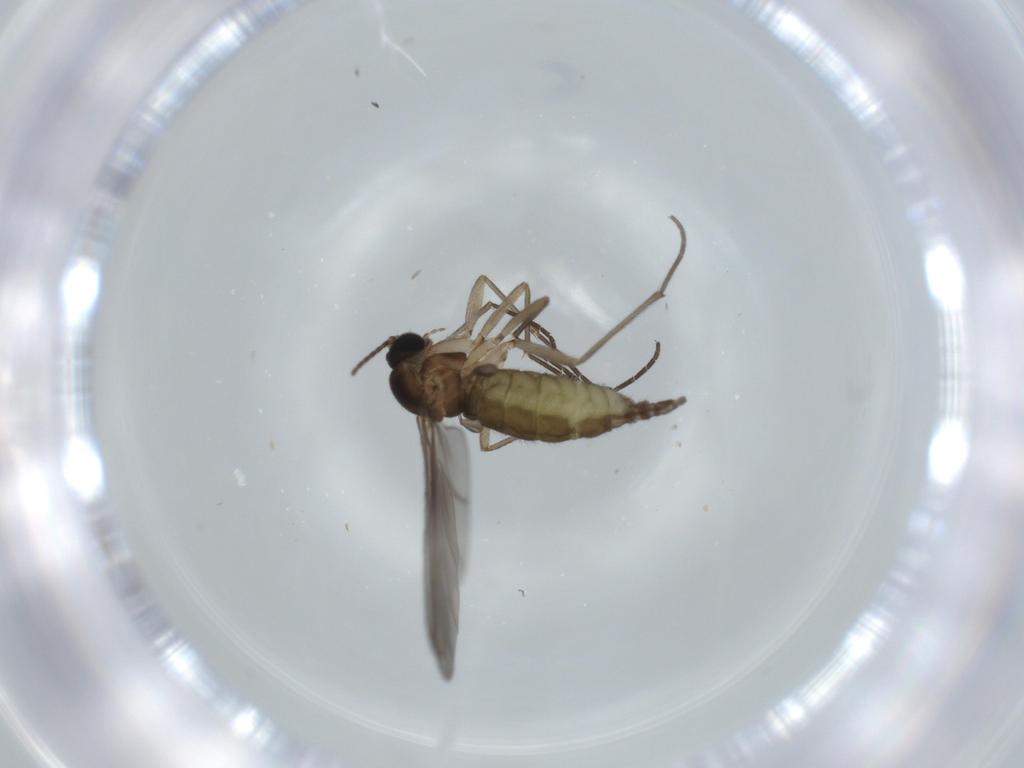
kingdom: Animalia
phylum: Arthropoda
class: Insecta
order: Diptera
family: Sciaridae
